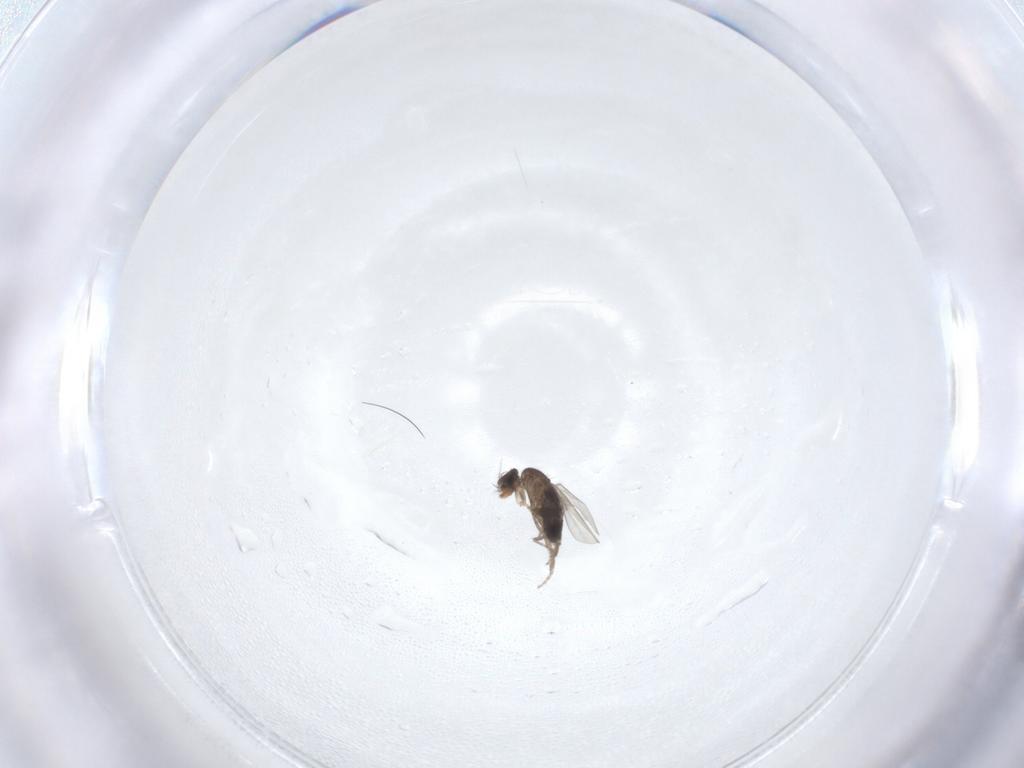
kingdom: Animalia
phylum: Arthropoda
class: Insecta
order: Diptera
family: Phoridae
